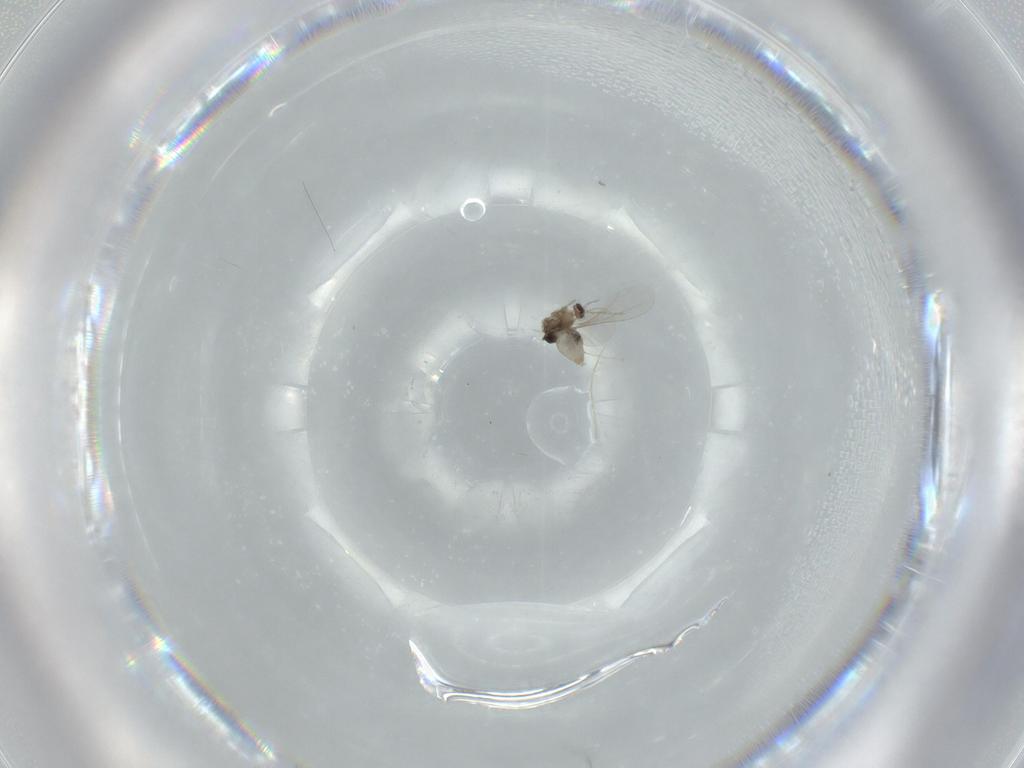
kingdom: Animalia
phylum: Arthropoda
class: Insecta
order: Diptera
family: Cecidomyiidae
